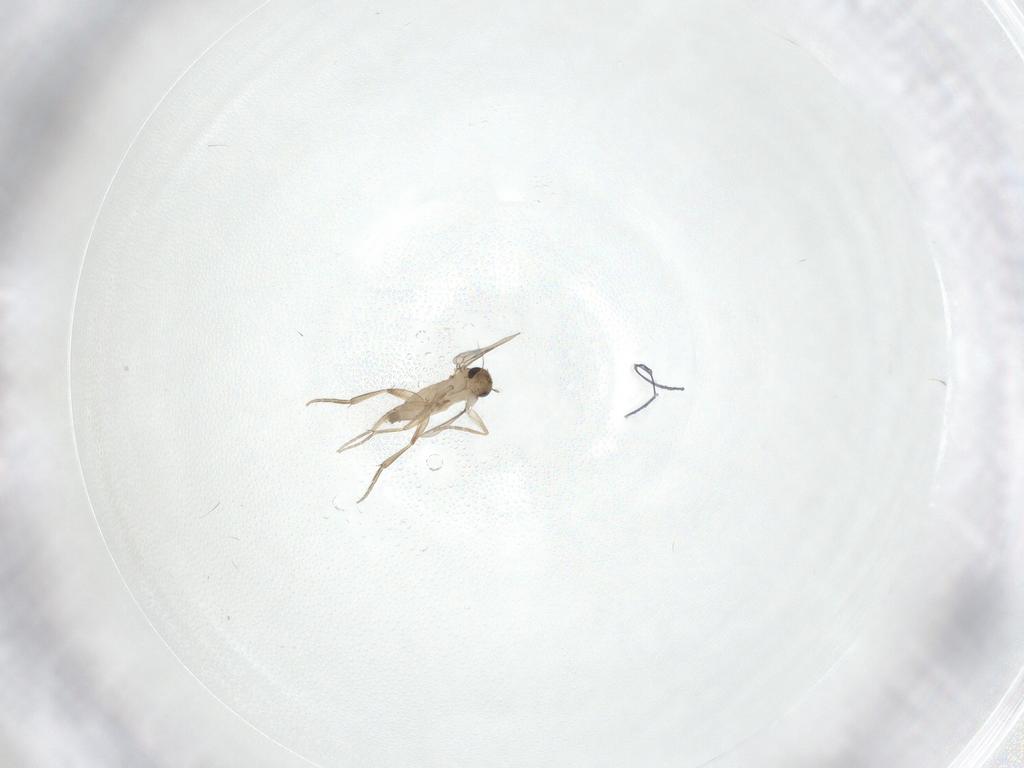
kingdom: Animalia
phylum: Arthropoda
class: Insecta
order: Diptera
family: Phoridae
